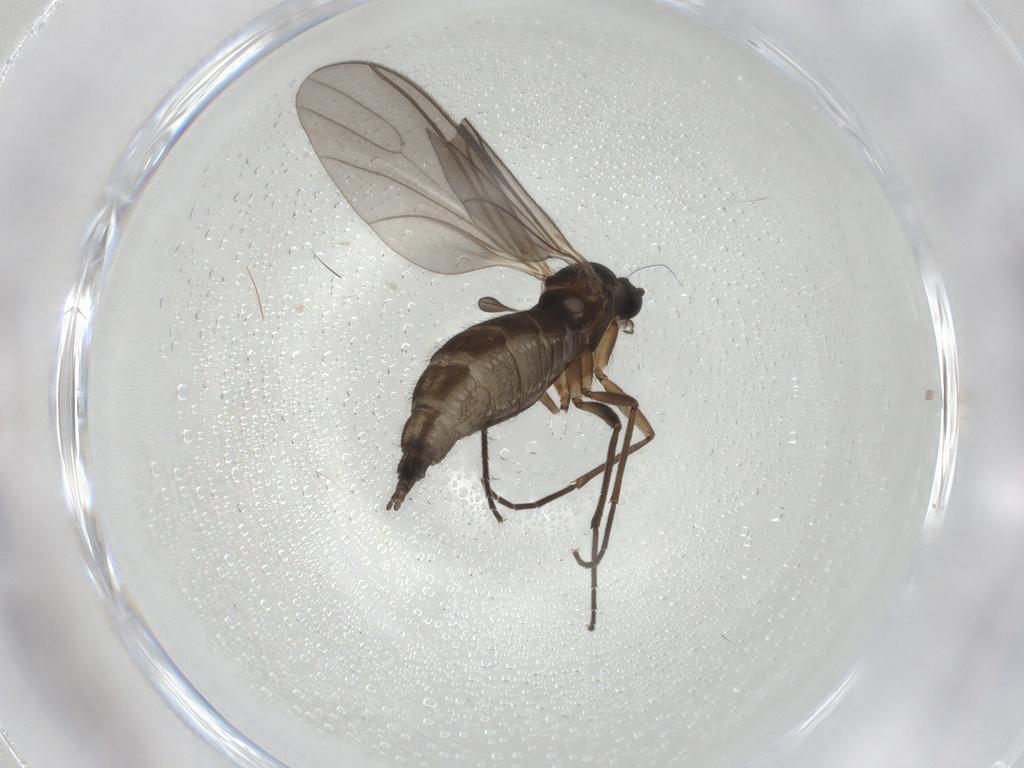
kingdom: Animalia
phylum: Arthropoda
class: Insecta
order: Diptera
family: Sciaridae
